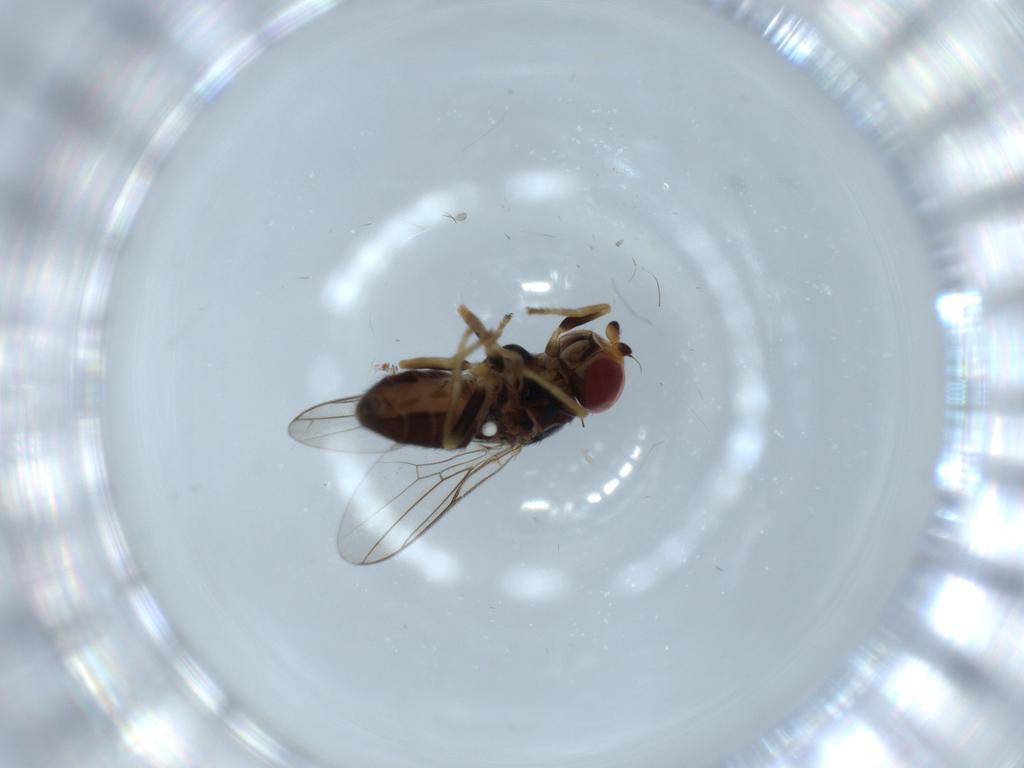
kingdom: Animalia
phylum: Arthropoda
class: Insecta
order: Diptera
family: Chloropidae
